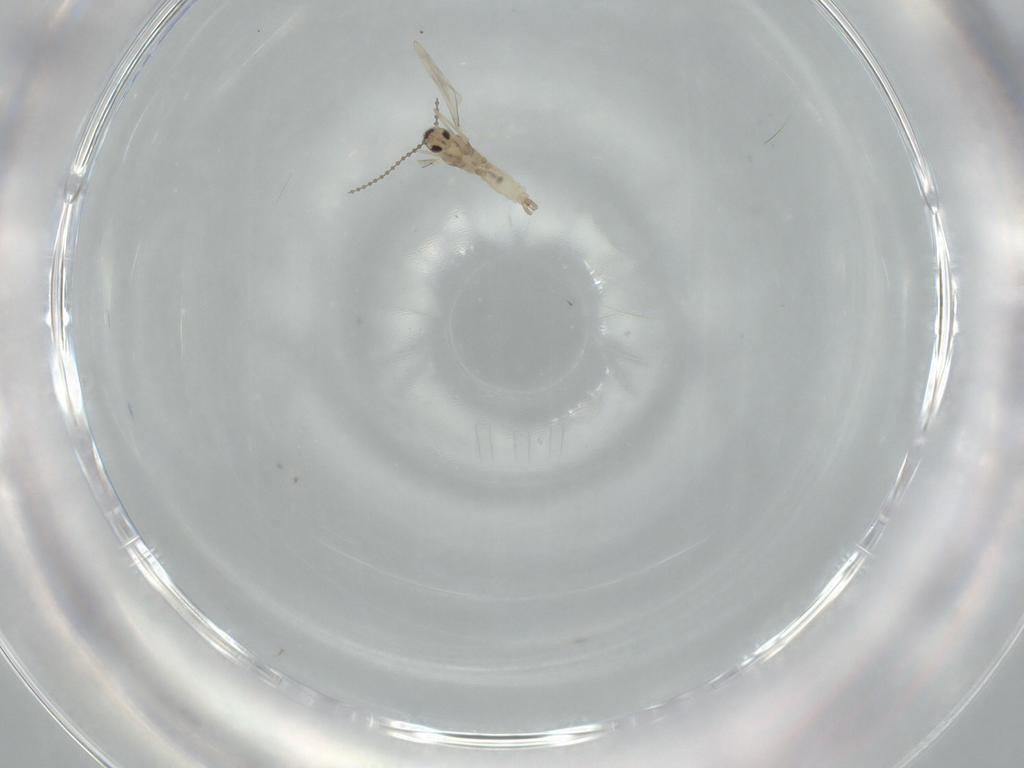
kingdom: Animalia
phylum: Arthropoda
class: Insecta
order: Diptera
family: Cecidomyiidae
